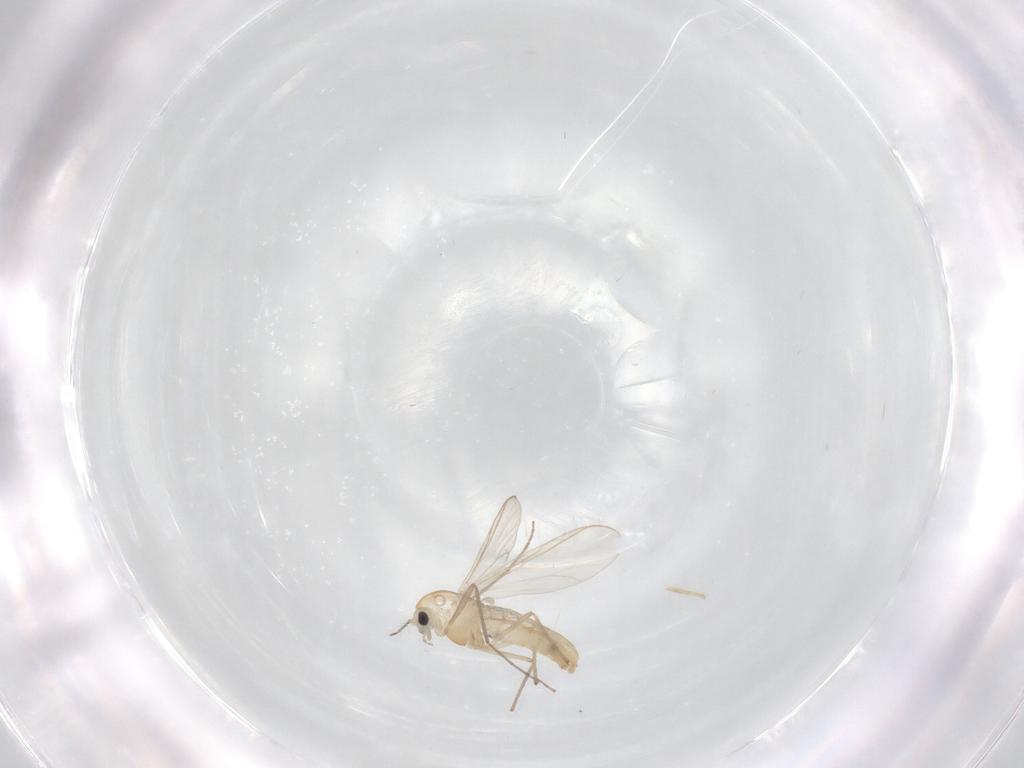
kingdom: Animalia
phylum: Arthropoda
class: Insecta
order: Diptera
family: Chironomidae
